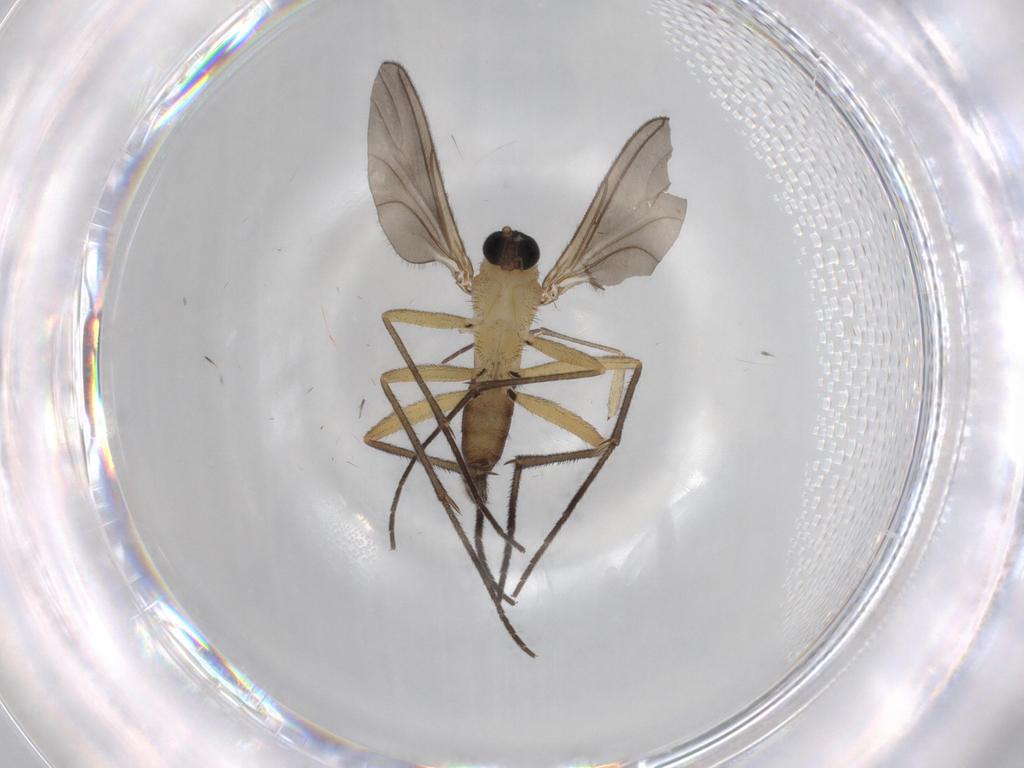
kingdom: Animalia
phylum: Arthropoda
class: Insecta
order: Diptera
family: Sciaridae
